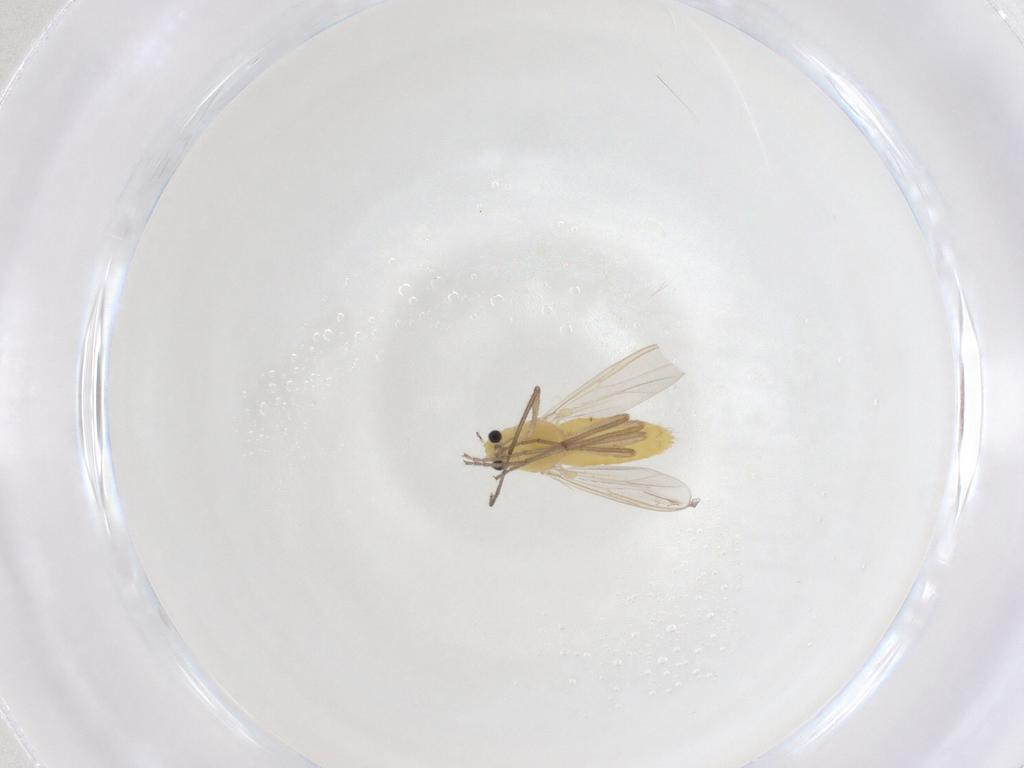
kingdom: Animalia
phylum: Arthropoda
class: Insecta
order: Diptera
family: Chironomidae
